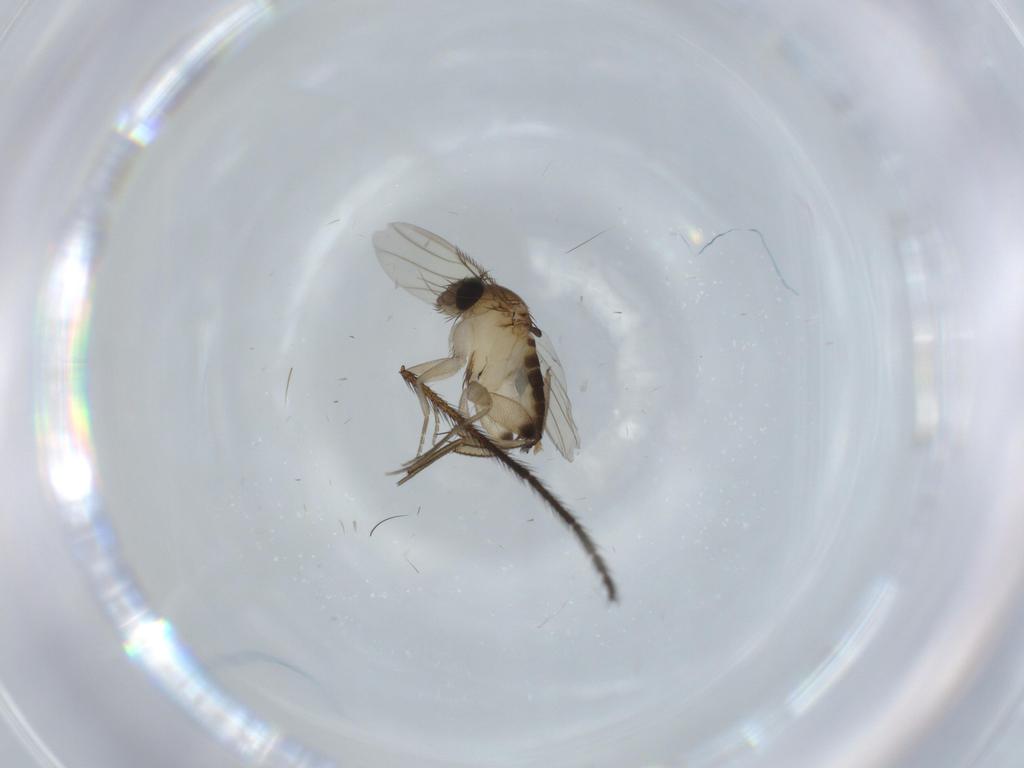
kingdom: Animalia
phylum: Arthropoda
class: Insecta
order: Diptera
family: Phoridae
